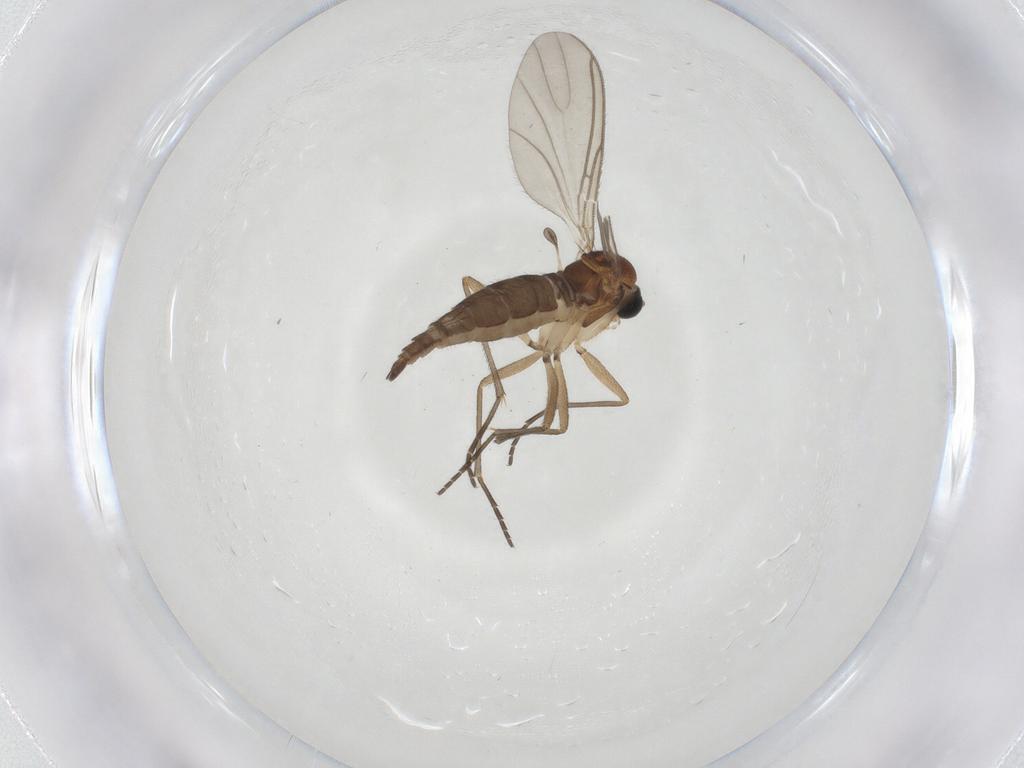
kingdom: Animalia
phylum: Arthropoda
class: Insecta
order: Diptera
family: Sciaridae
